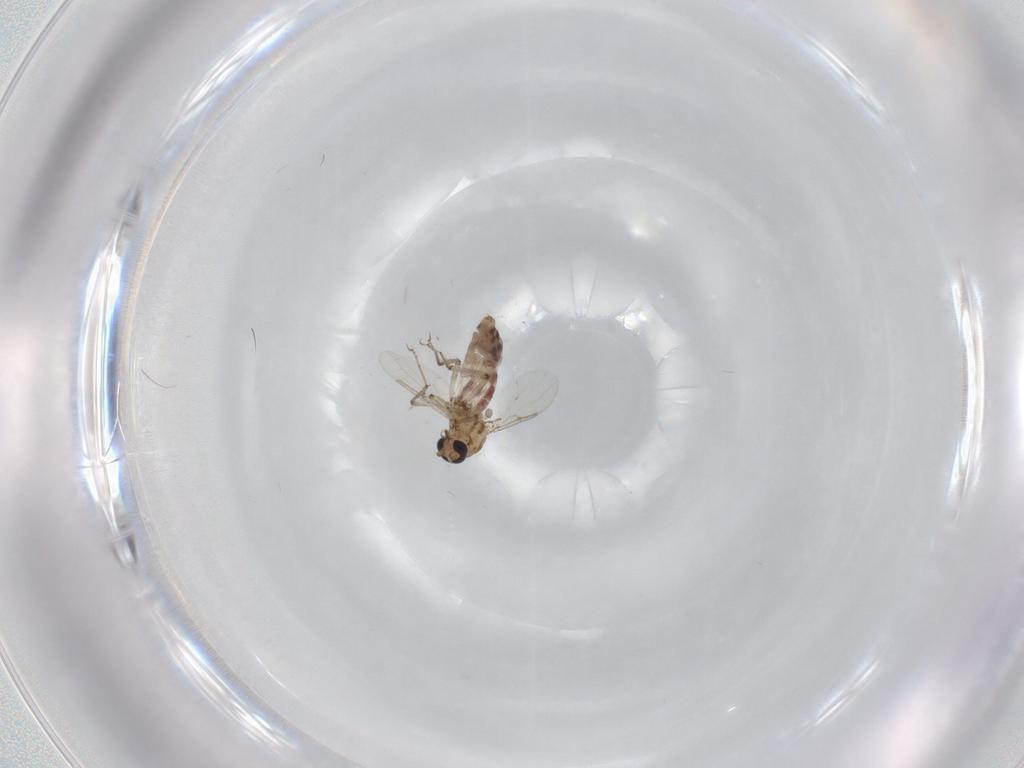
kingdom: Animalia
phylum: Arthropoda
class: Insecta
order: Diptera
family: Ceratopogonidae
